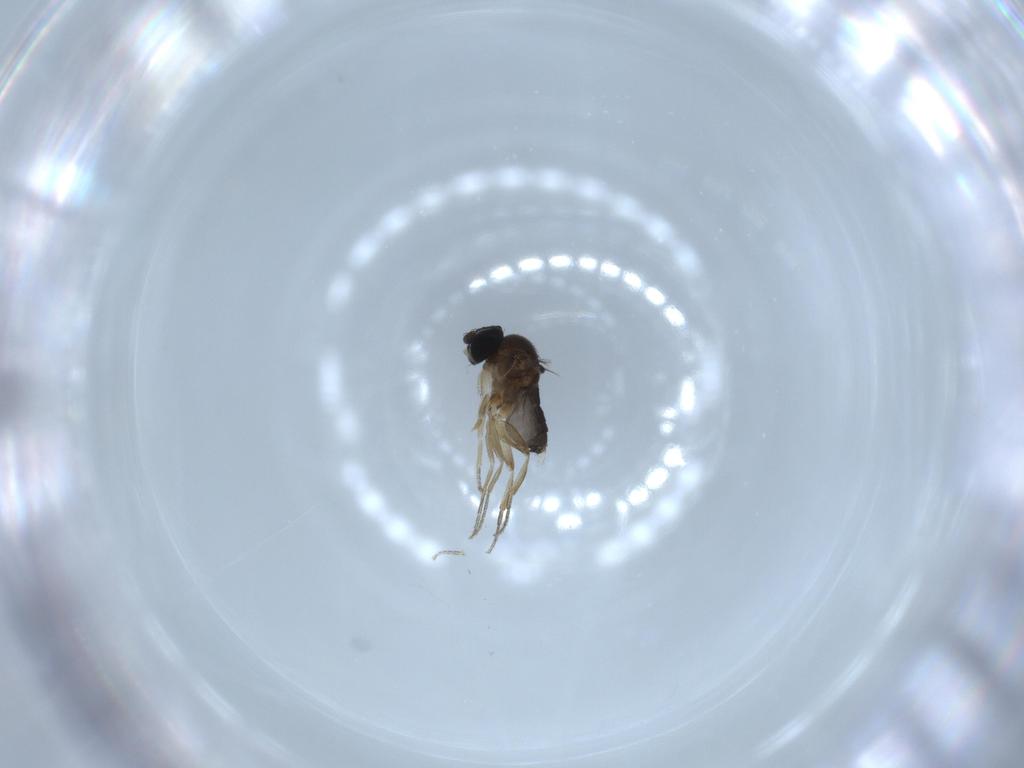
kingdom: Animalia
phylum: Arthropoda
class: Insecta
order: Diptera
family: Phoridae
